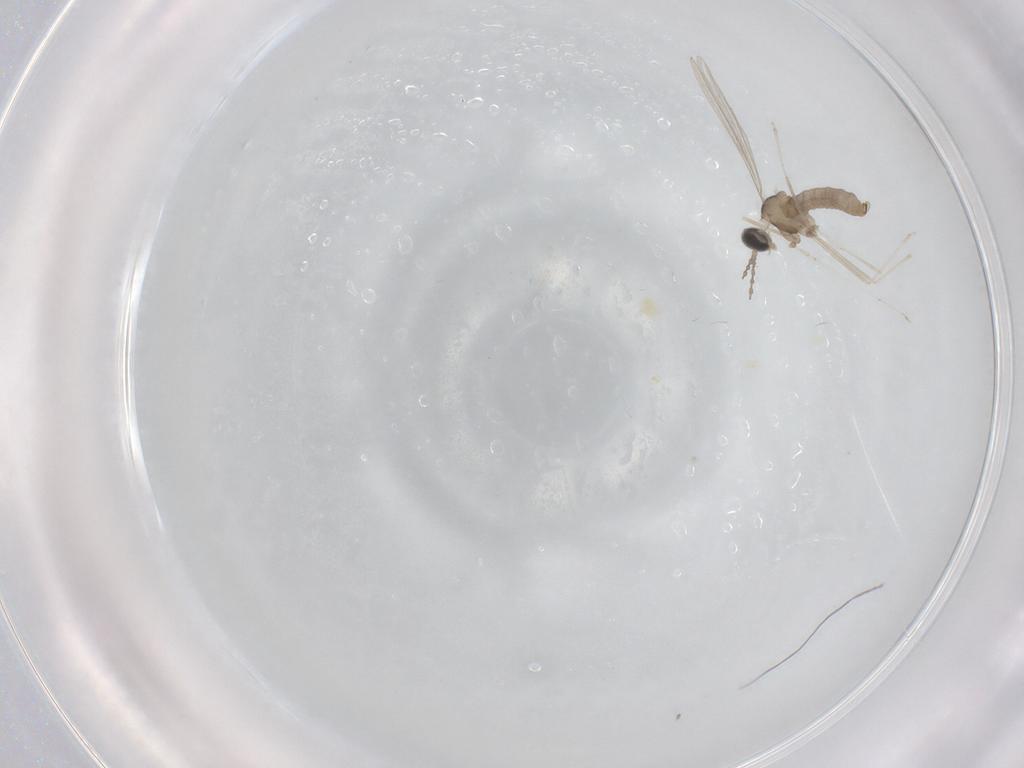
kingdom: Animalia
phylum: Arthropoda
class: Insecta
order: Diptera
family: Cecidomyiidae
